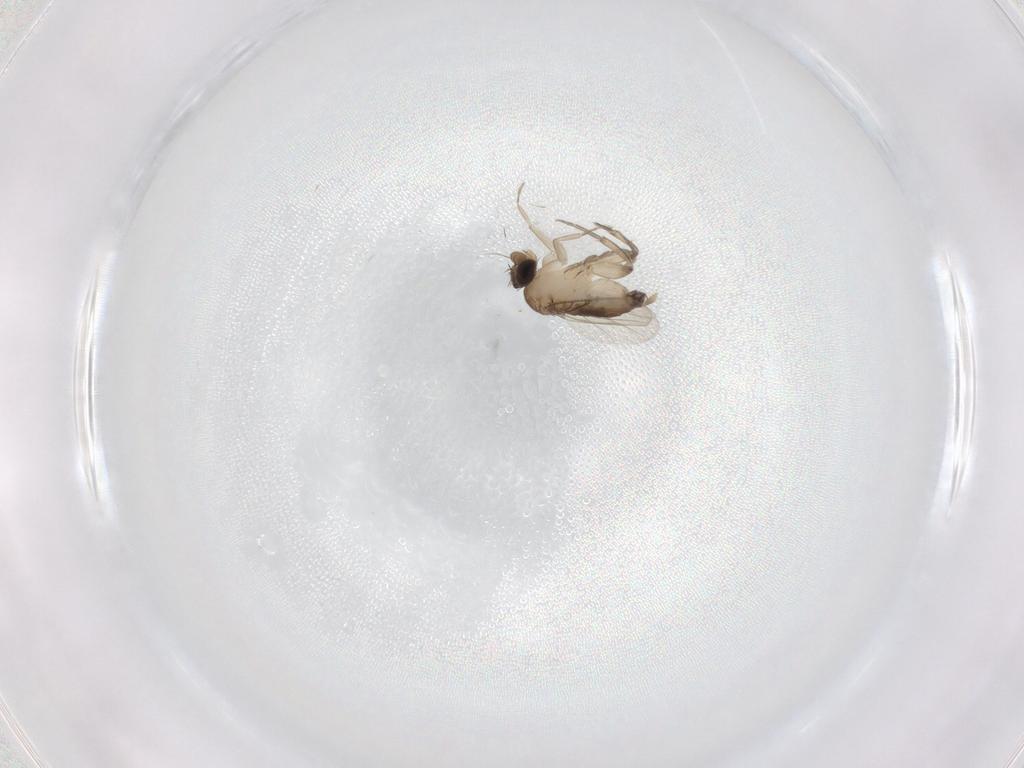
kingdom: Animalia
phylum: Arthropoda
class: Insecta
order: Diptera
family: Phoridae
